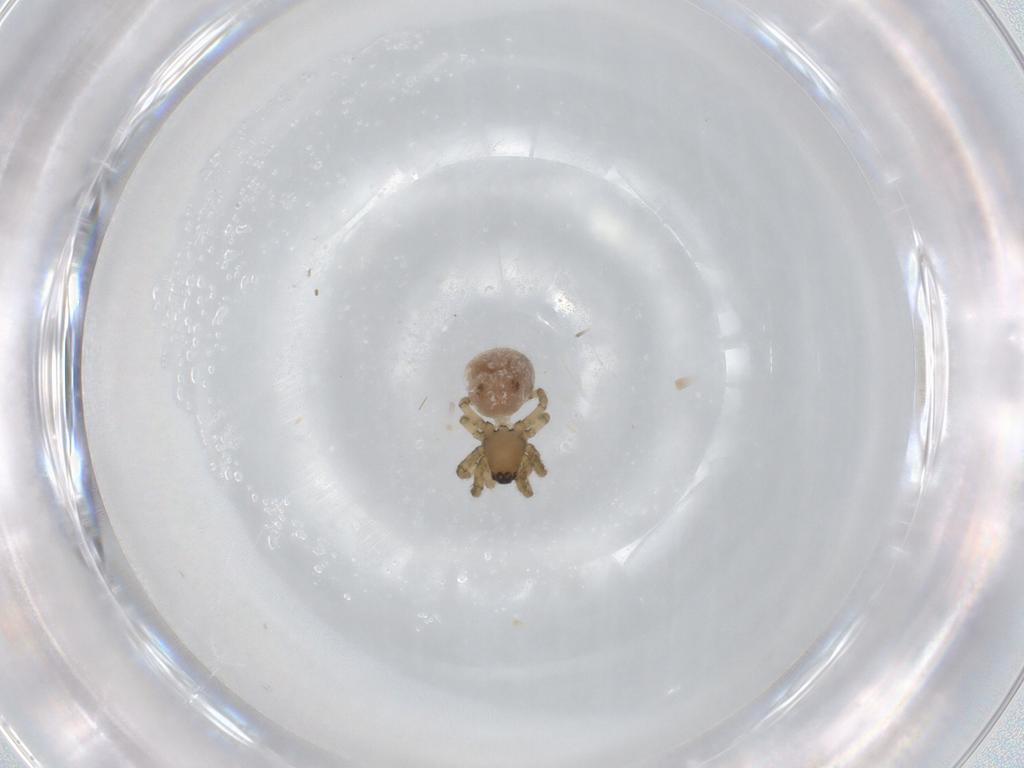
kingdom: Animalia
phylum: Arthropoda
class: Arachnida
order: Araneae
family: Araneidae
